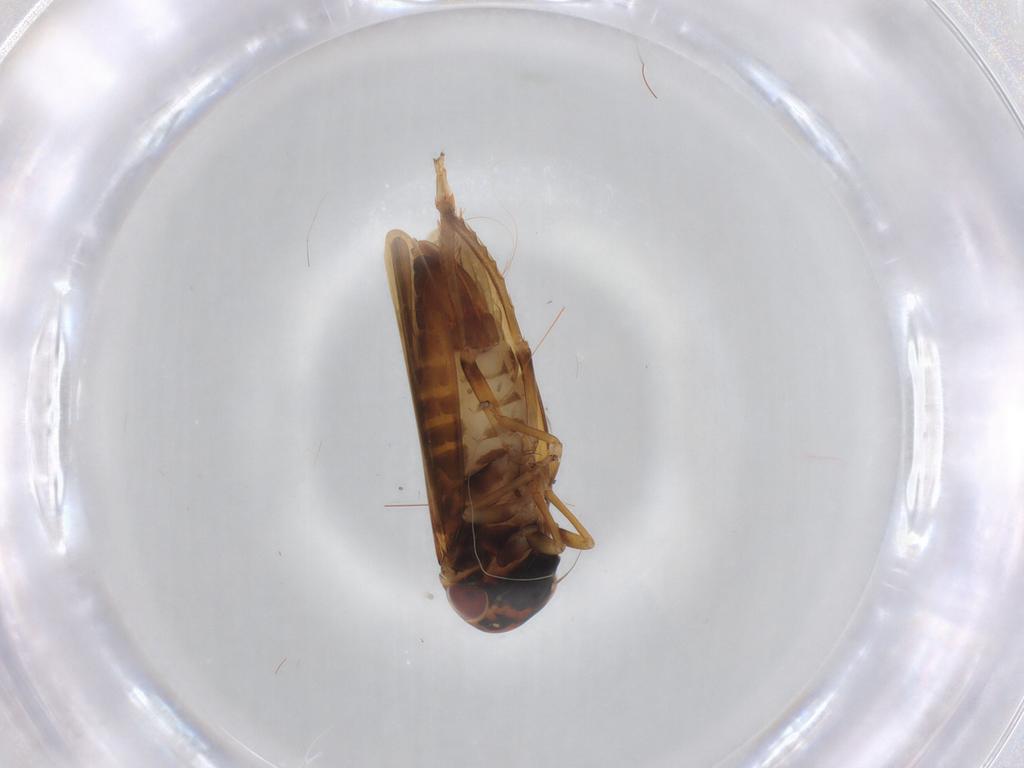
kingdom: Animalia
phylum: Arthropoda
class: Insecta
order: Hemiptera
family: Cicadellidae
